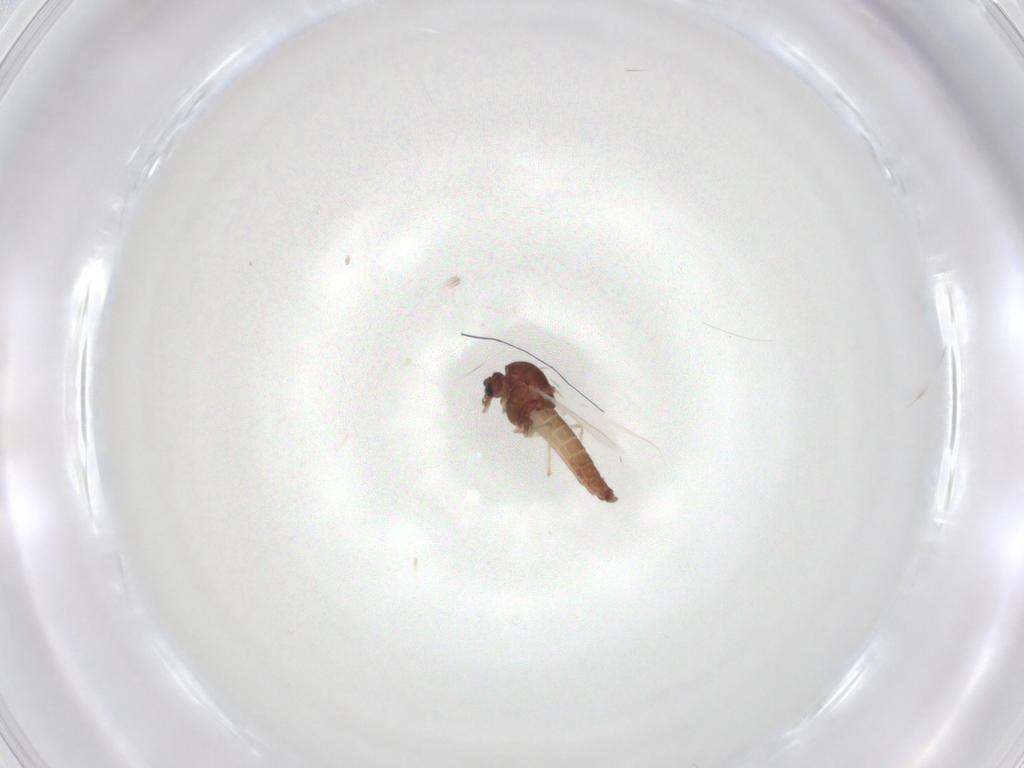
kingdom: Animalia
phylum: Arthropoda
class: Insecta
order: Diptera
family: Chironomidae
